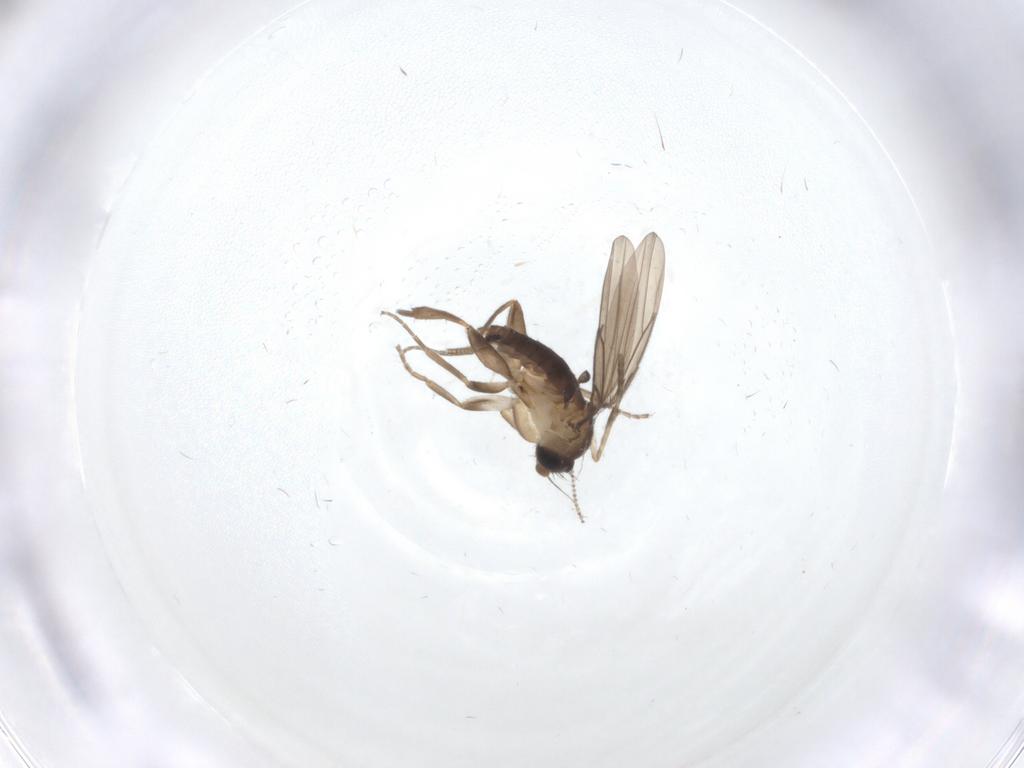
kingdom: Animalia
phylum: Arthropoda
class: Insecta
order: Diptera
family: Cecidomyiidae
